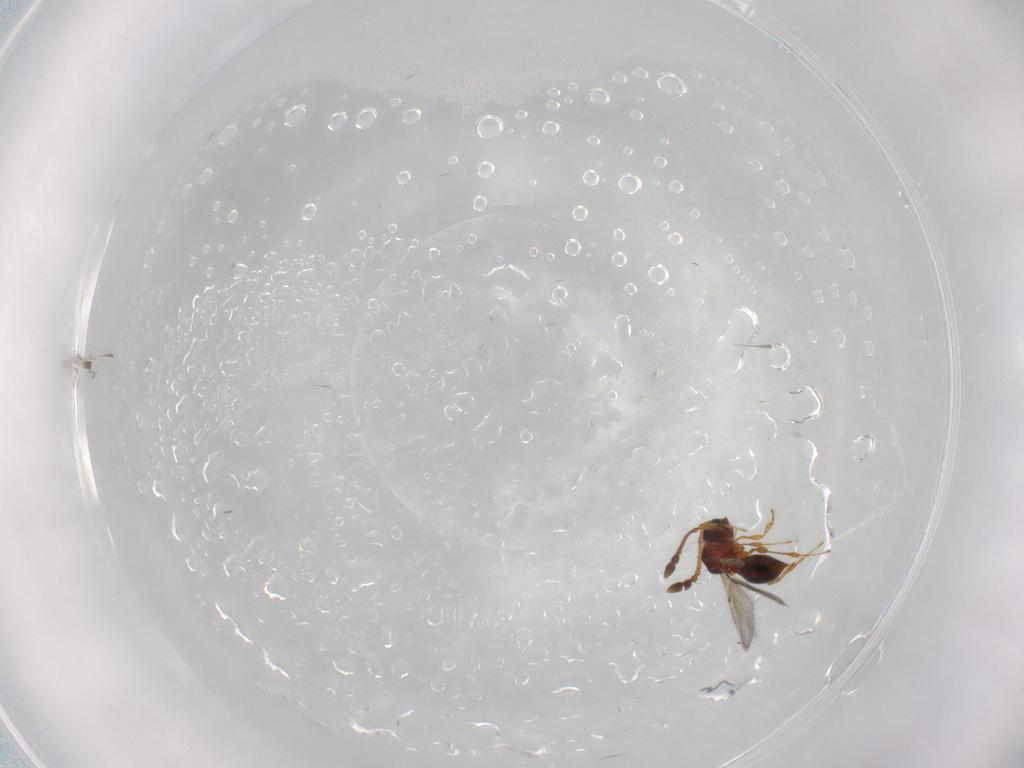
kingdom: Animalia
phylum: Arthropoda
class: Insecta
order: Hymenoptera
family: Diapriidae
